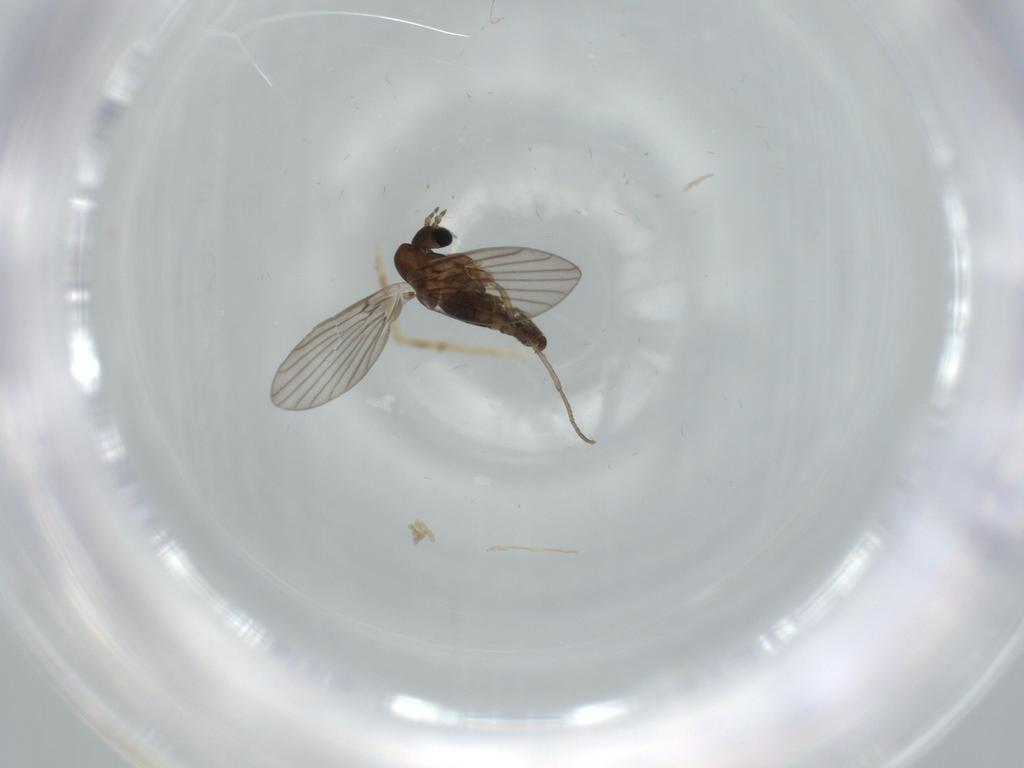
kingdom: Animalia
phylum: Arthropoda
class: Insecta
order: Diptera
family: Psychodidae
